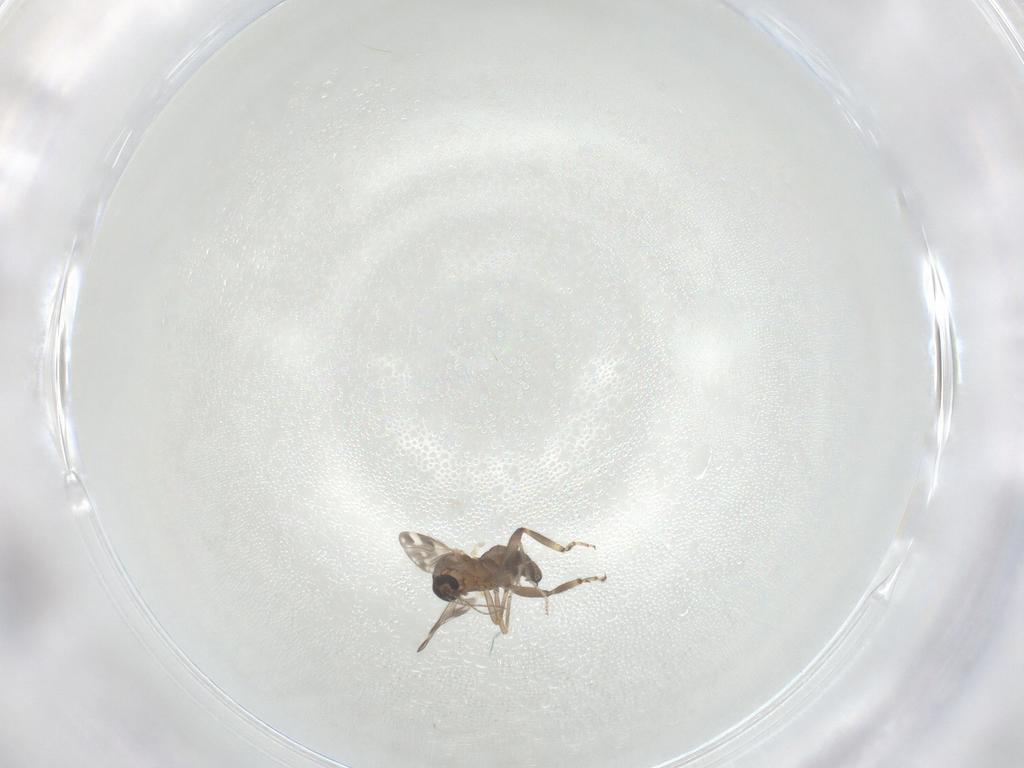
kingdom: Animalia
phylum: Arthropoda
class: Insecta
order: Diptera
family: Ceratopogonidae
